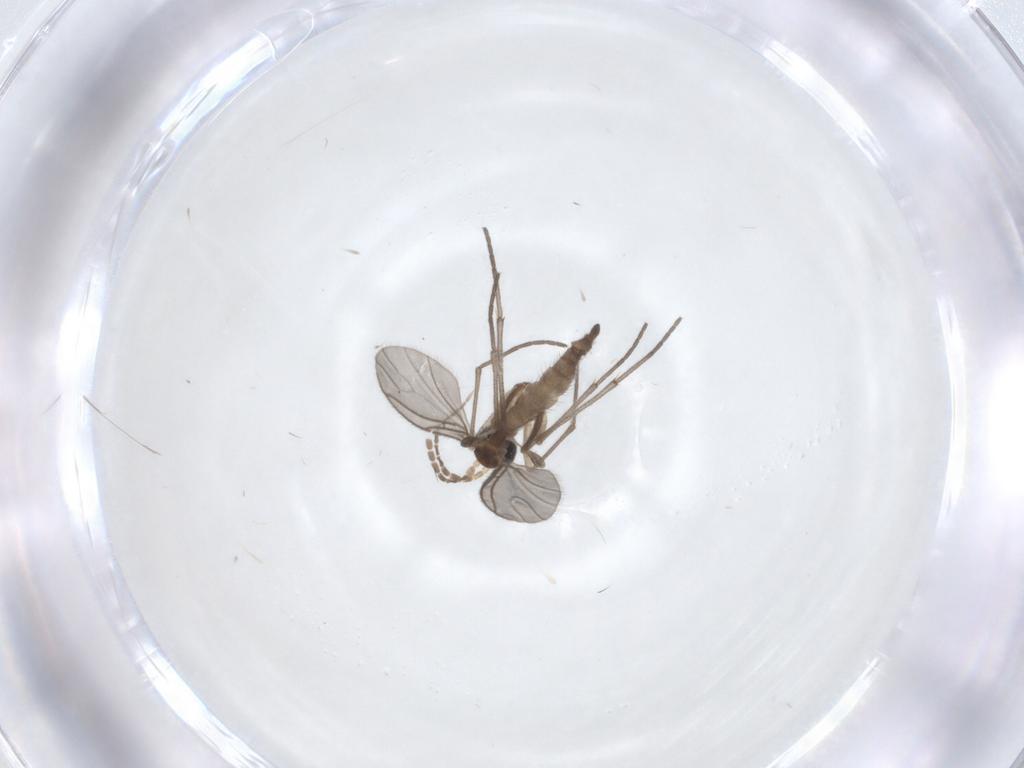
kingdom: Animalia
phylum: Arthropoda
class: Insecta
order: Diptera
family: Sciaridae
